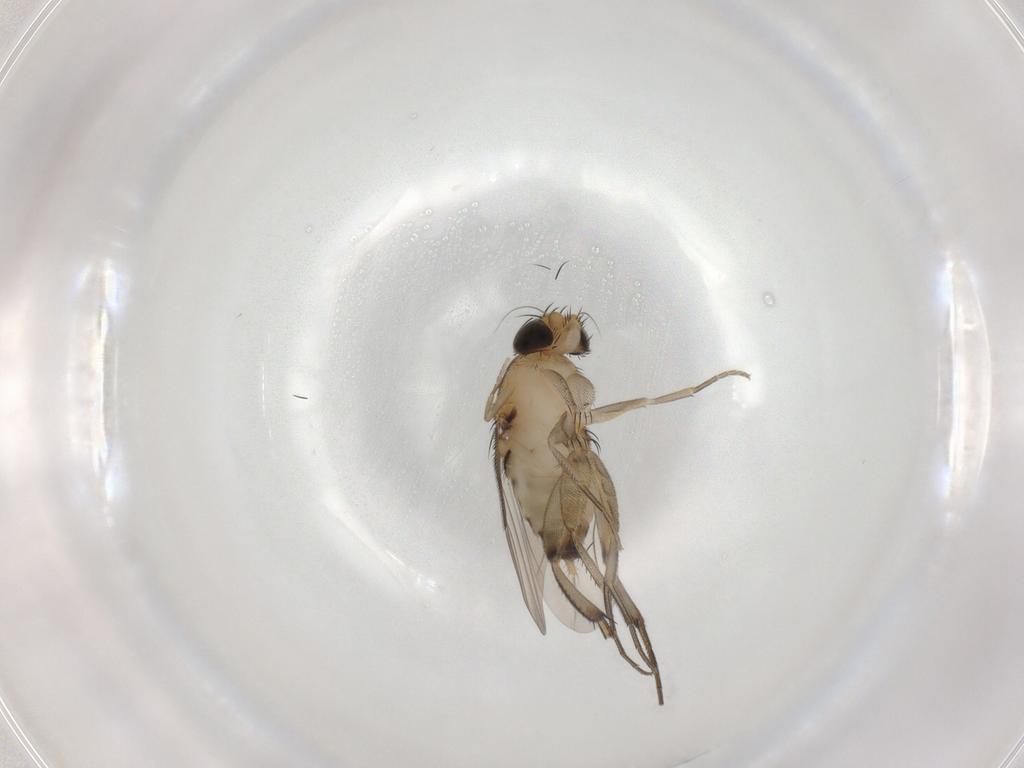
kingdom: Animalia
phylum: Arthropoda
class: Insecta
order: Diptera
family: Phoridae
